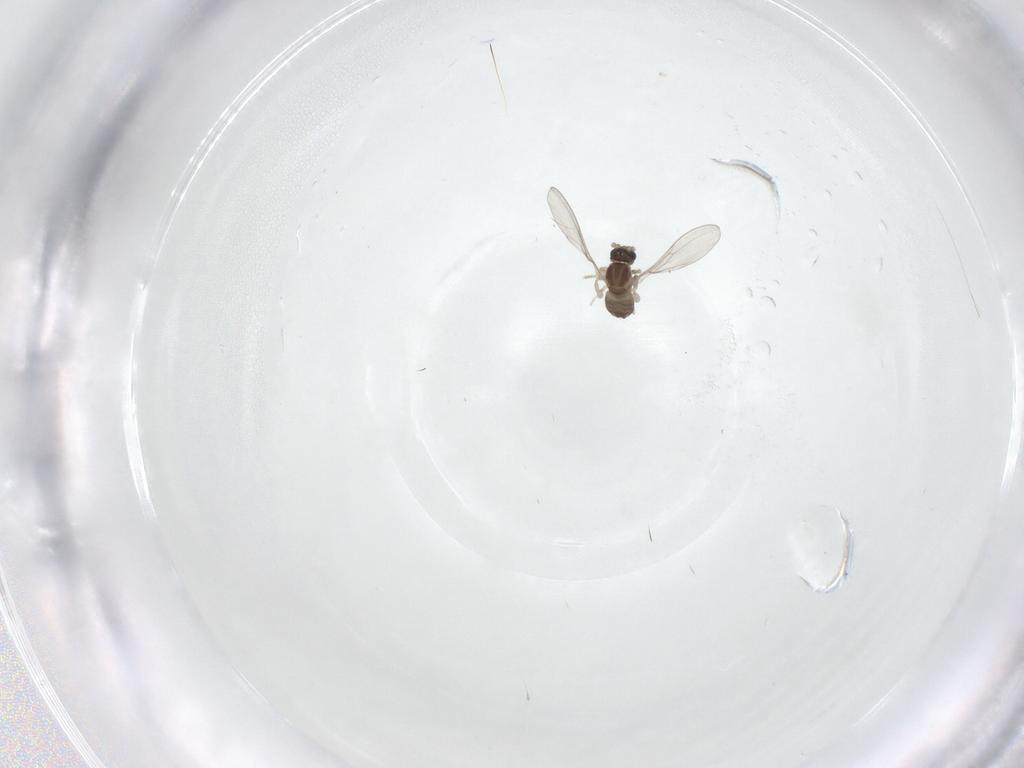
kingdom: Animalia
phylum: Arthropoda
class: Insecta
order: Diptera
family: Cecidomyiidae
